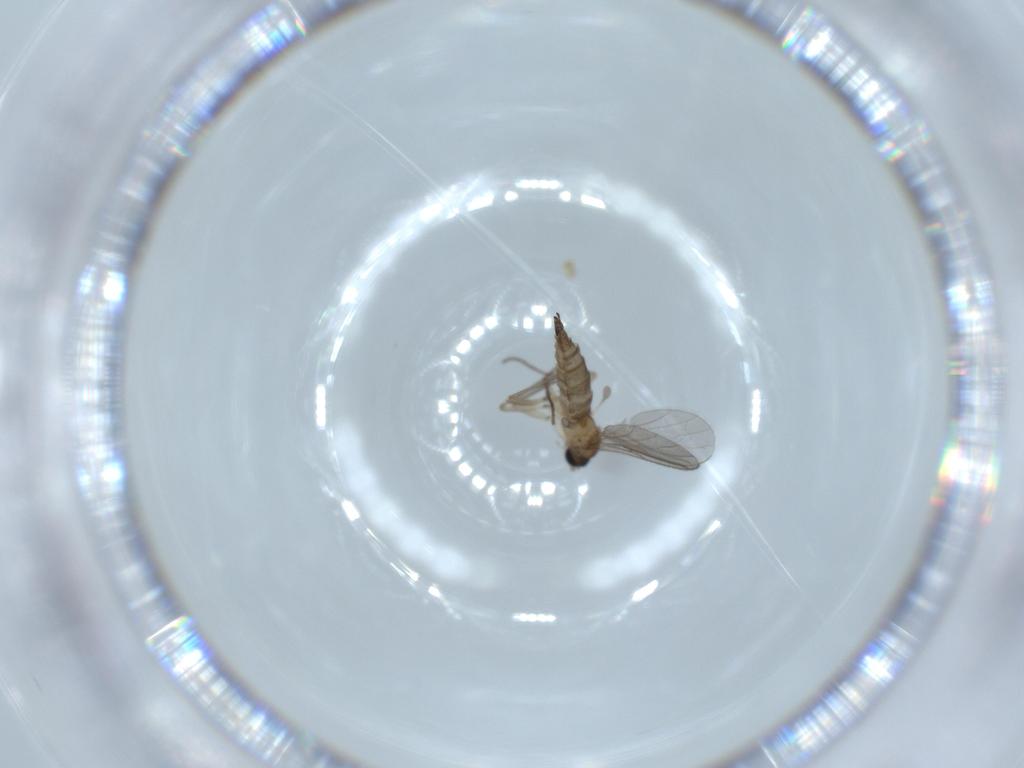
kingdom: Animalia
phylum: Arthropoda
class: Insecta
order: Diptera
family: Sciaridae
